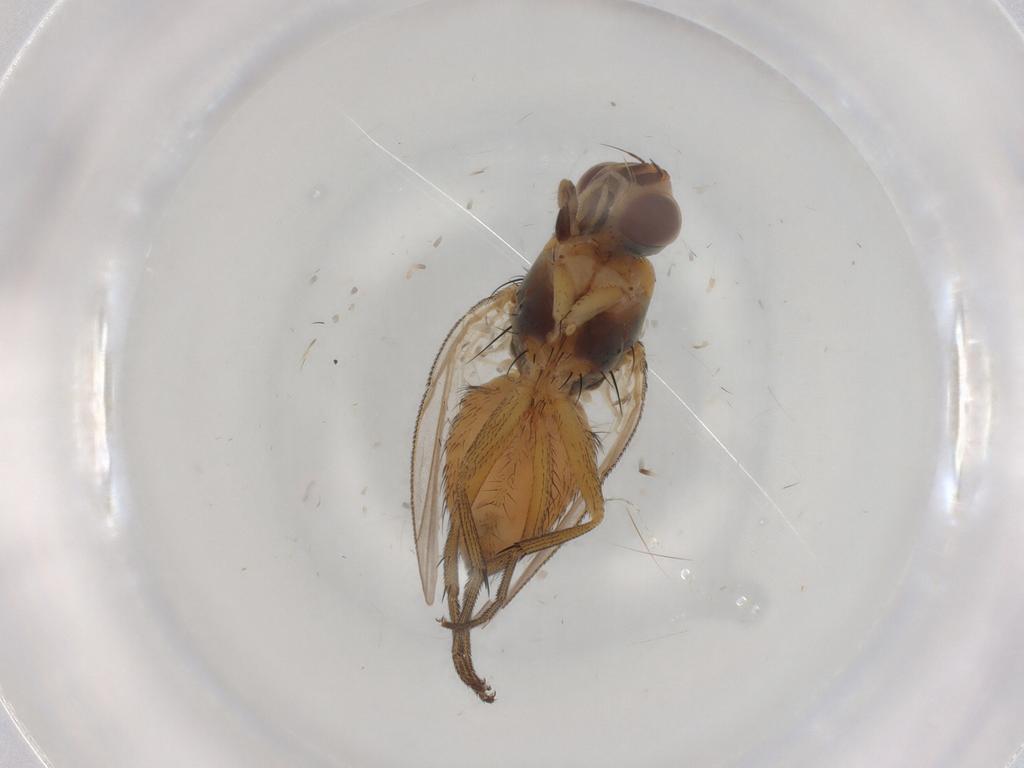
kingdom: Animalia
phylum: Arthropoda
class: Insecta
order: Diptera
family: Muscidae
